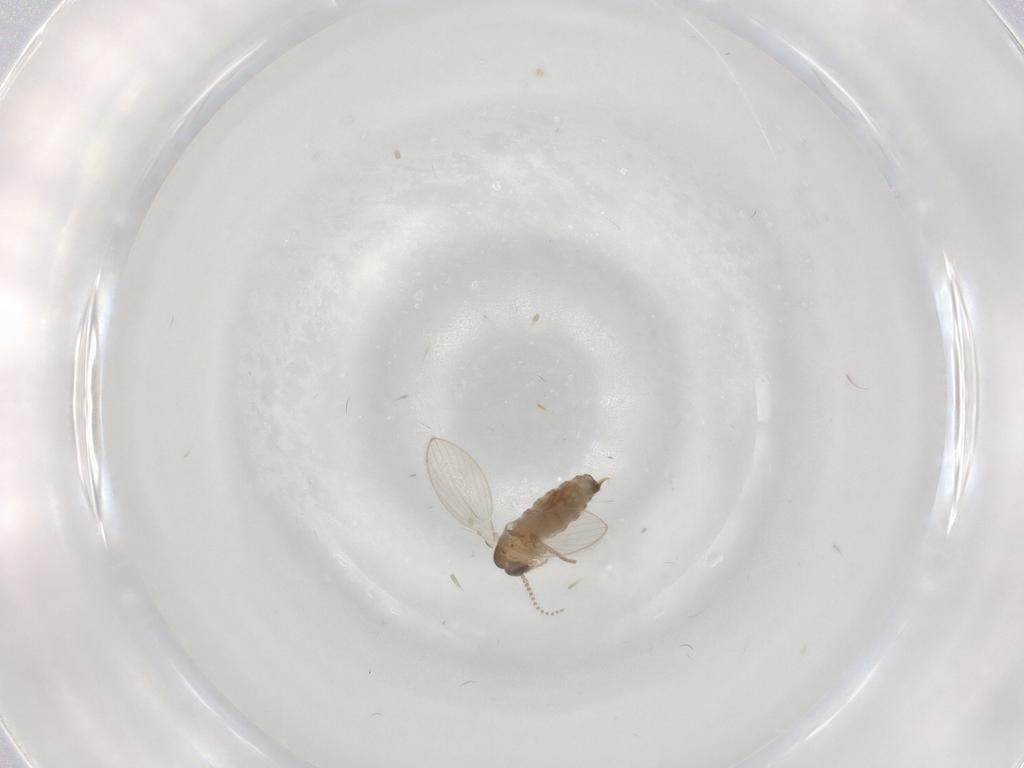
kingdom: Animalia
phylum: Arthropoda
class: Insecta
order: Diptera
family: Psychodidae
